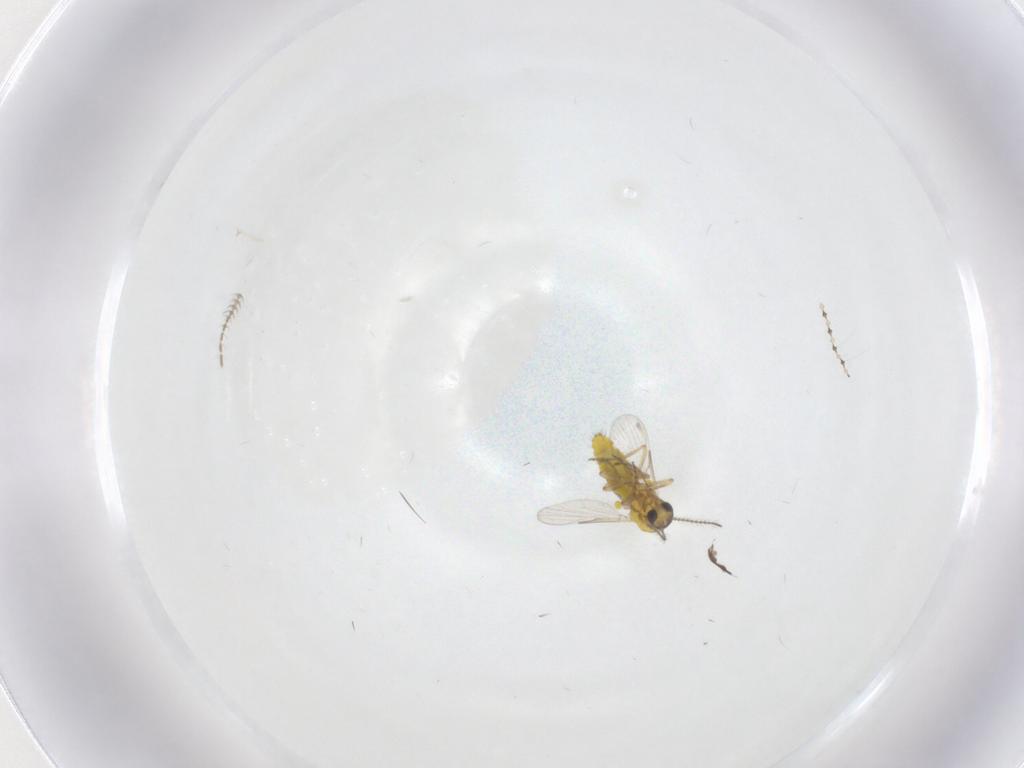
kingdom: Animalia
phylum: Arthropoda
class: Insecta
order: Diptera
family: Ceratopogonidae
